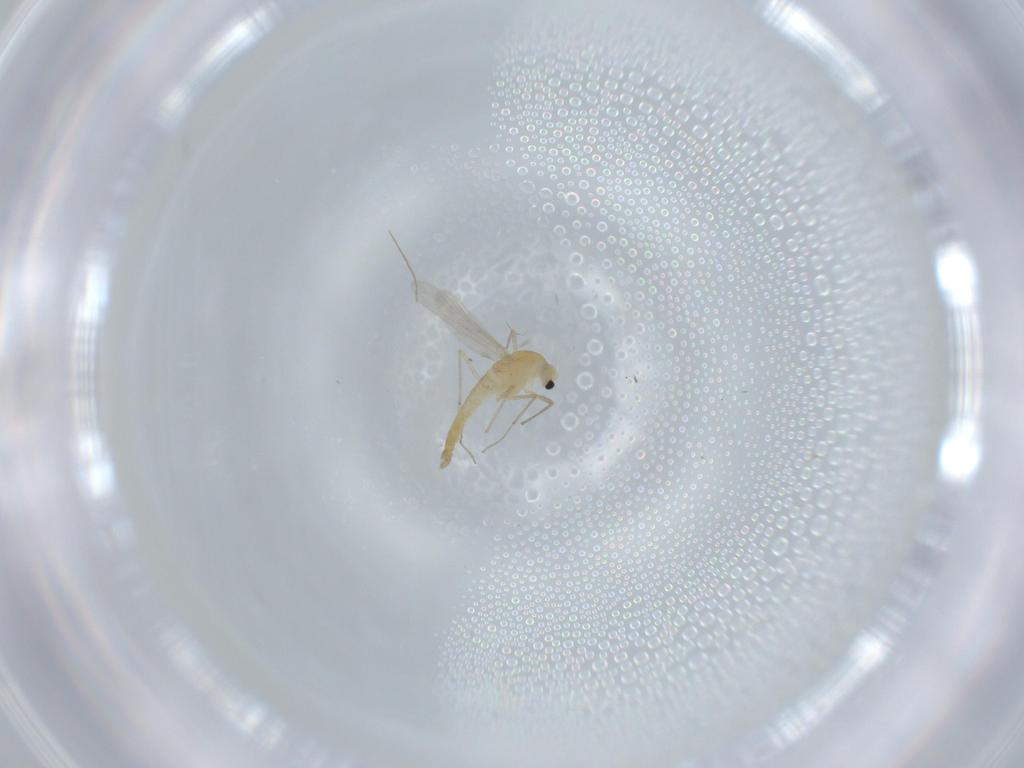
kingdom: Animalia
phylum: Arthropoda
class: Insecta
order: Diptera
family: Chironomidae
